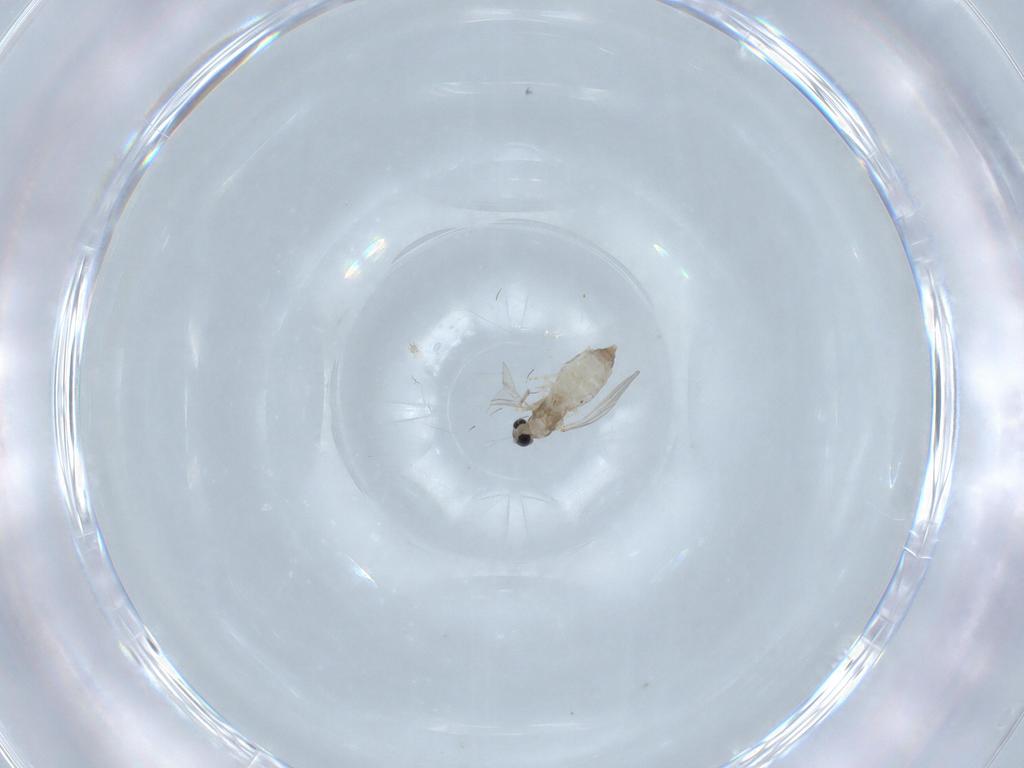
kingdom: Animalia
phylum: Arthropoda
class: Insecta
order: Diptera
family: Cecidomyiidae
